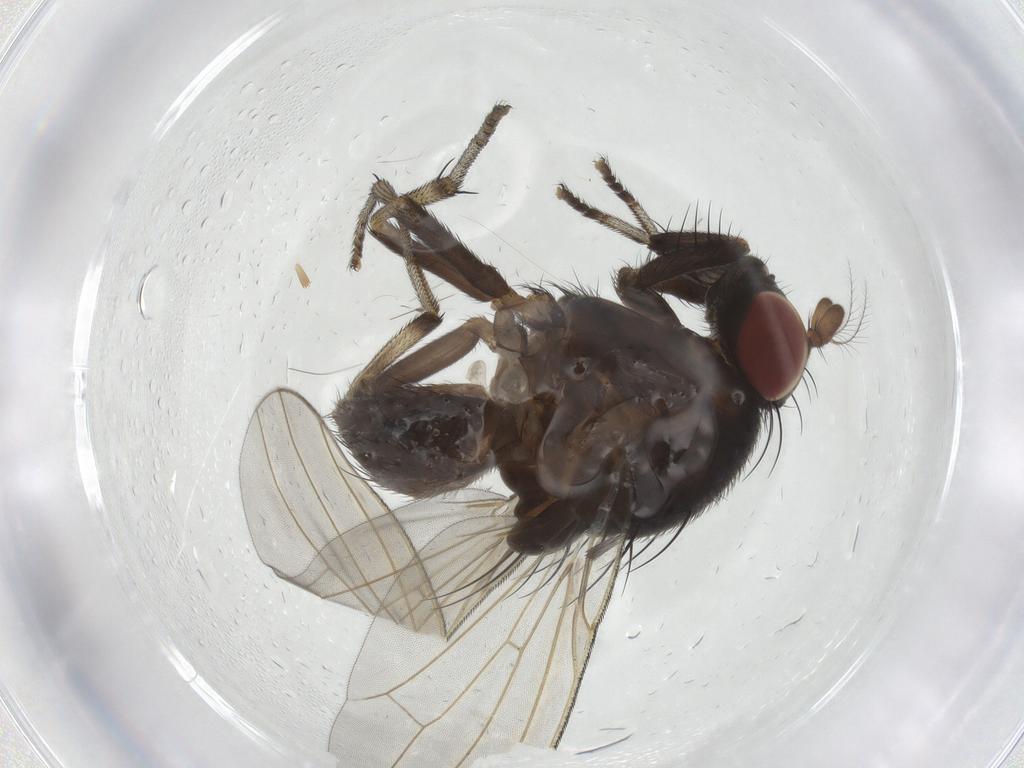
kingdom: Animalia
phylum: Arthropoda
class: Insecta
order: Diptera
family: Lauxaniidae
